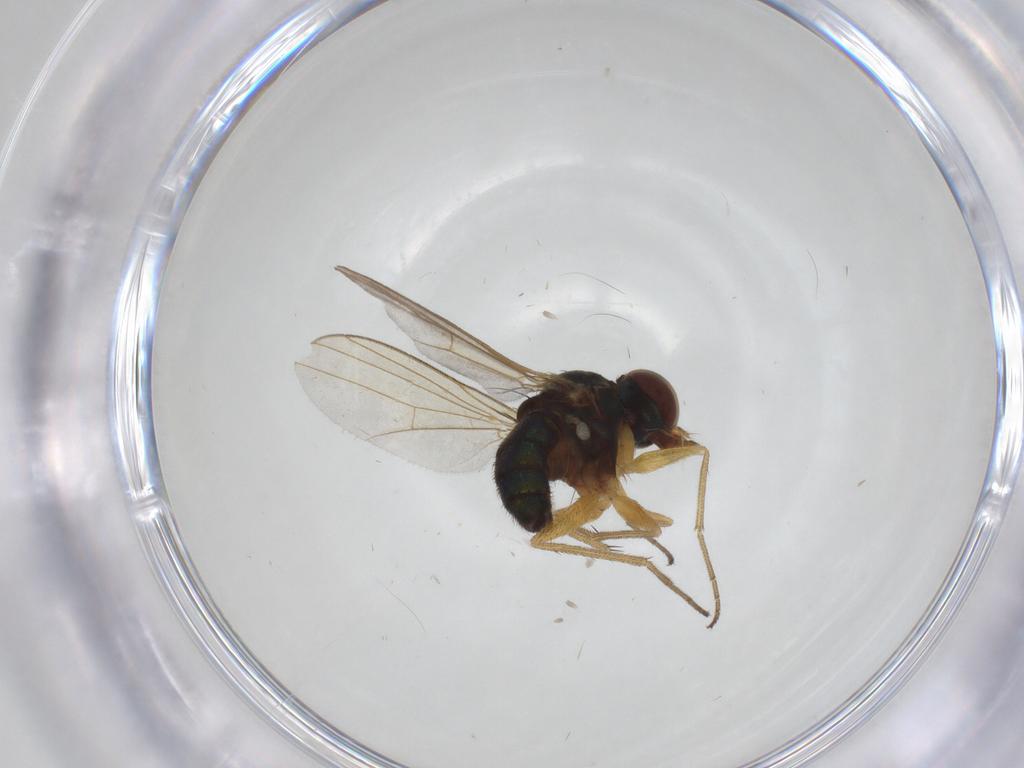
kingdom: Animalia
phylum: Arthropoda
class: Insecta
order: Diptera
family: Dolichopodidae
